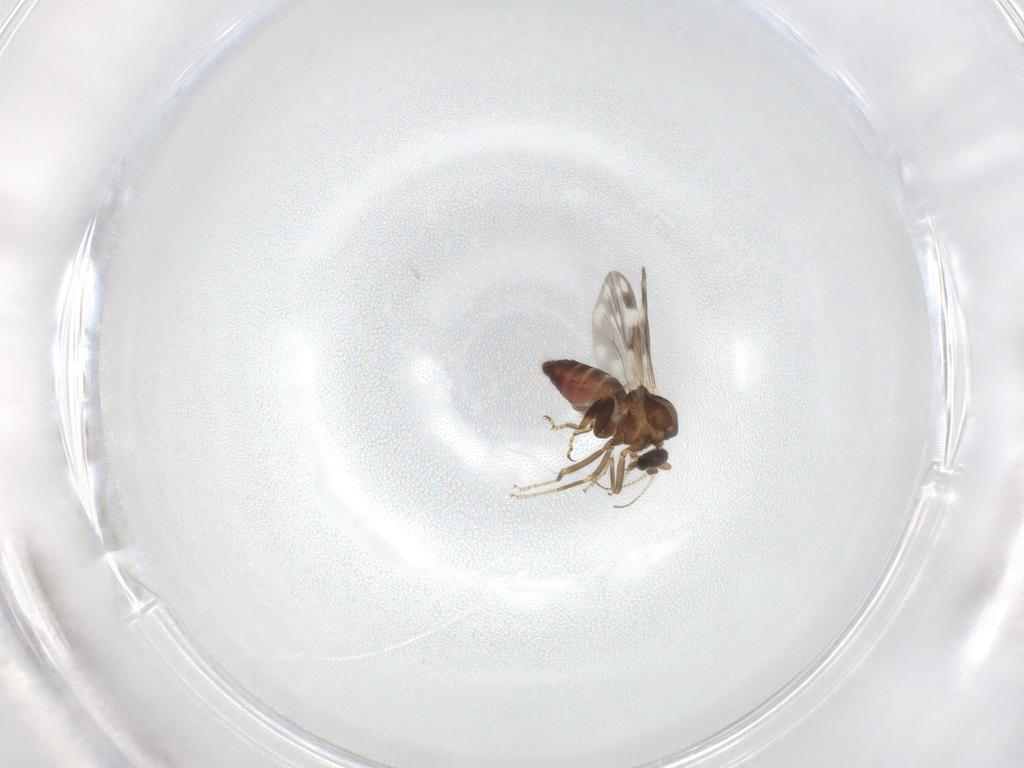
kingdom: Animalia
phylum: Arthropoda
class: Insecta
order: Diptera
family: Ceratopogonidae
